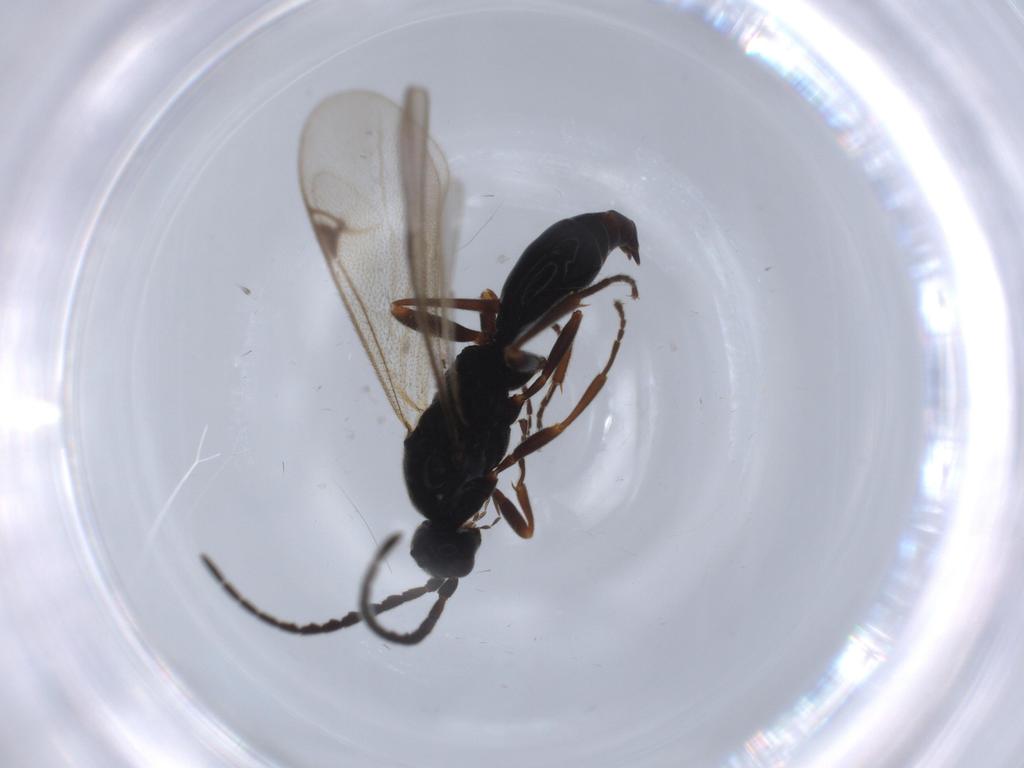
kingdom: Animalia
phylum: Arthropoda
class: Insecta
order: Hymenoptera
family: Proctotrupidae
